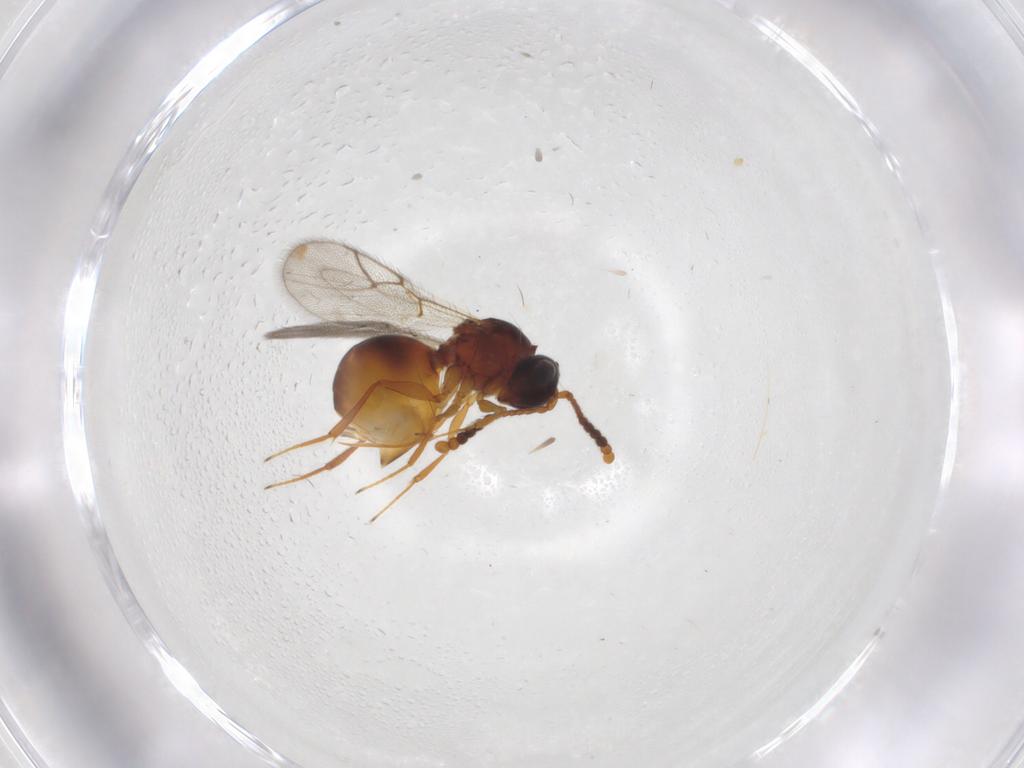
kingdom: Animalia
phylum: Arthropoda
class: Insecta
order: Hymenoptera
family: Figitidae
